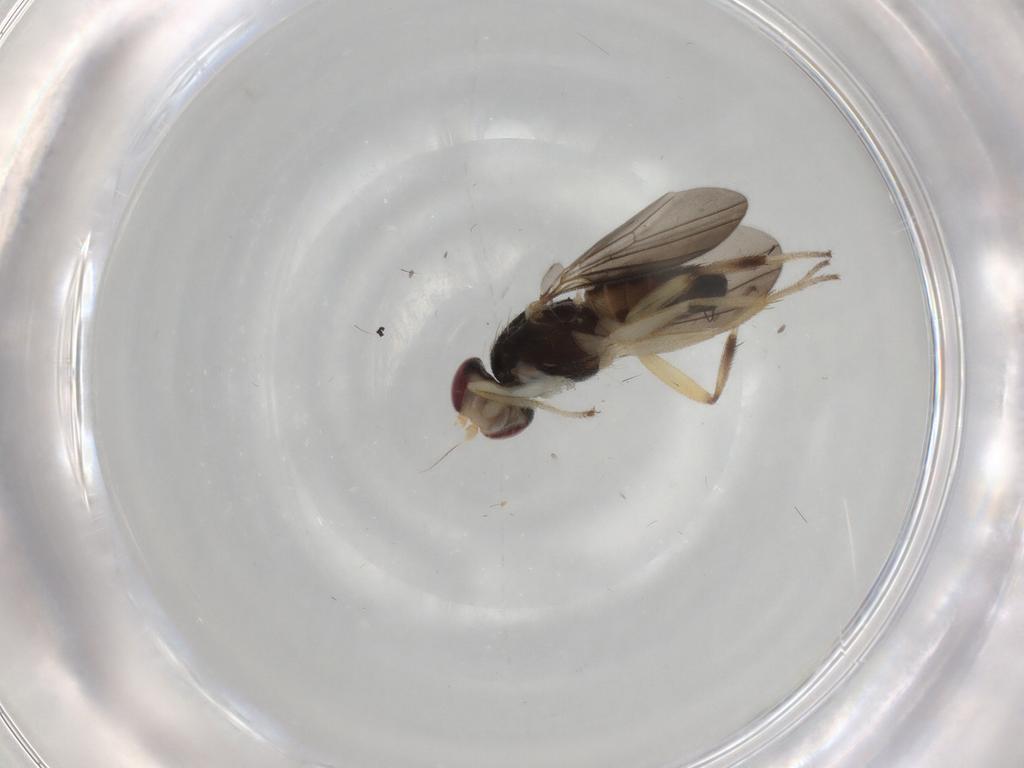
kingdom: Animalia
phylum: Arthropoda
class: Insecta
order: Diptera
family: Clusiidae
